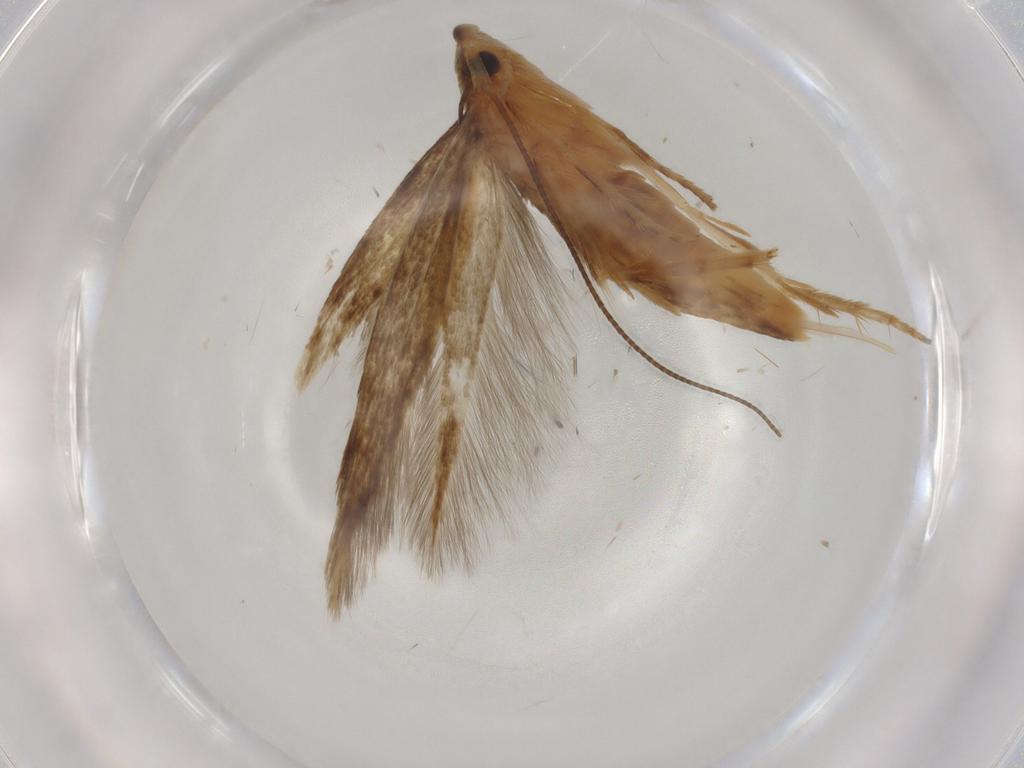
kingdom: Animalia
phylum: Arthropoda
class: Insecta
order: Lepidoptera
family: Tineidae
